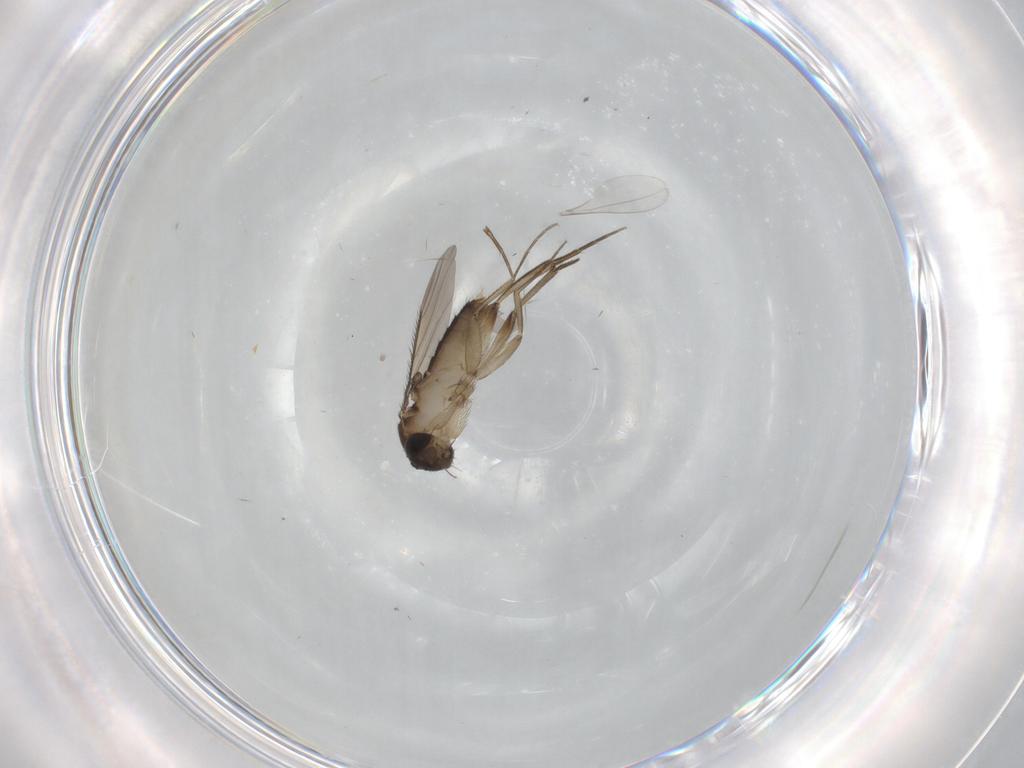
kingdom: Animalia
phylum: Arthropoda
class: Insecta
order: Diptera
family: Phoridae
